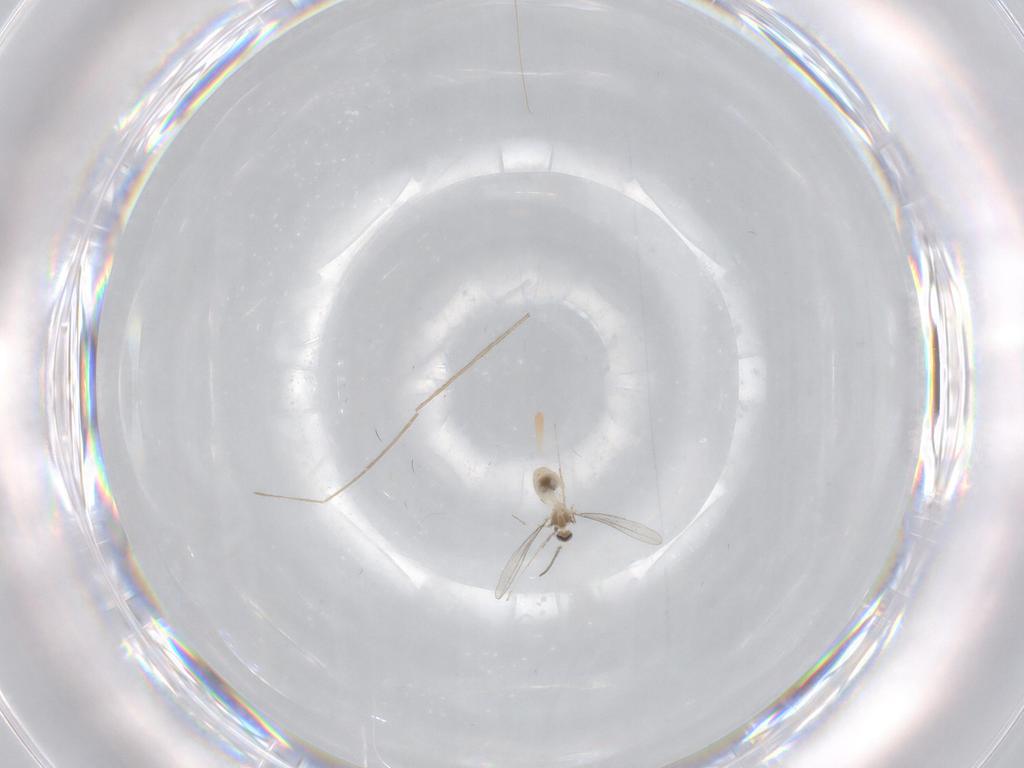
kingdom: Animalia
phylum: Arthropoda
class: Insecta
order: Diptera
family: Cecidomyiidae
